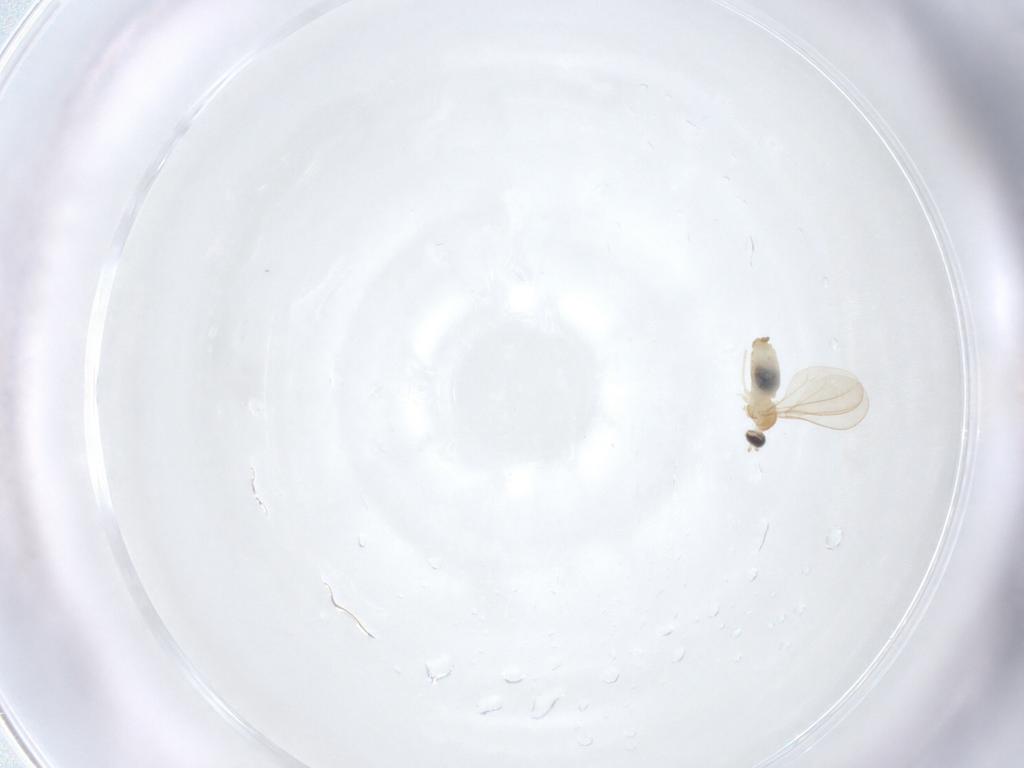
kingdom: Animalia
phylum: Arthropoda
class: Insecta
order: Diptera
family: Cecidomyiidae
